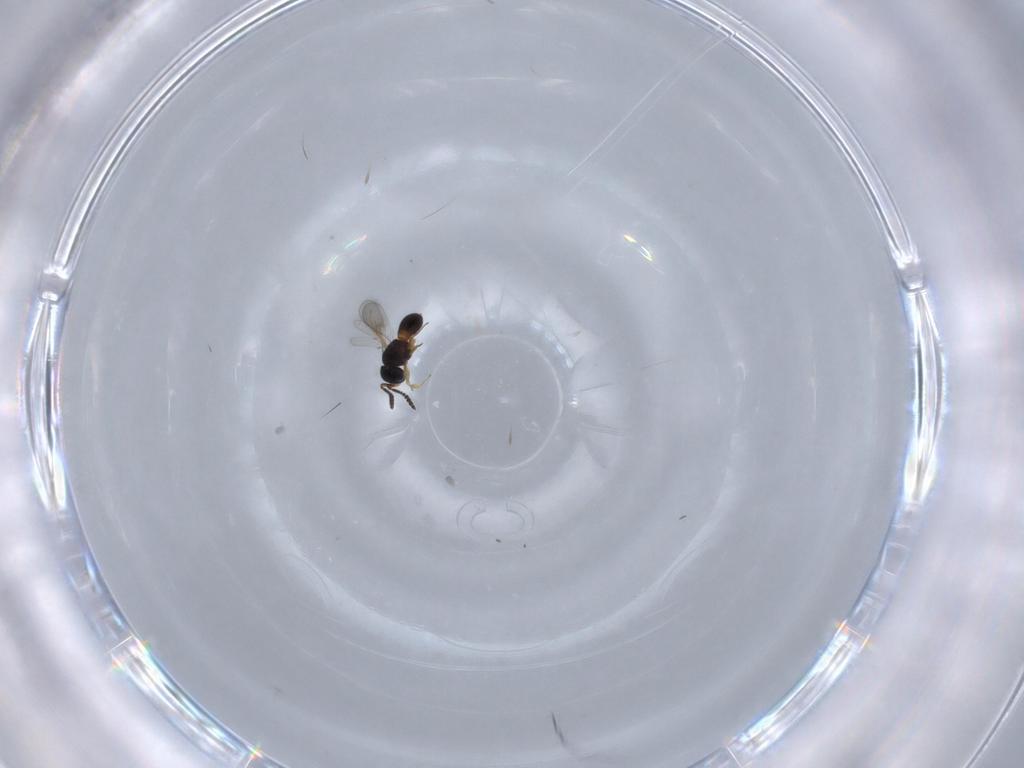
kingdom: Animalia
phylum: Arthropoda
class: Insecta
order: Hymenoptera
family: Scelionidae
